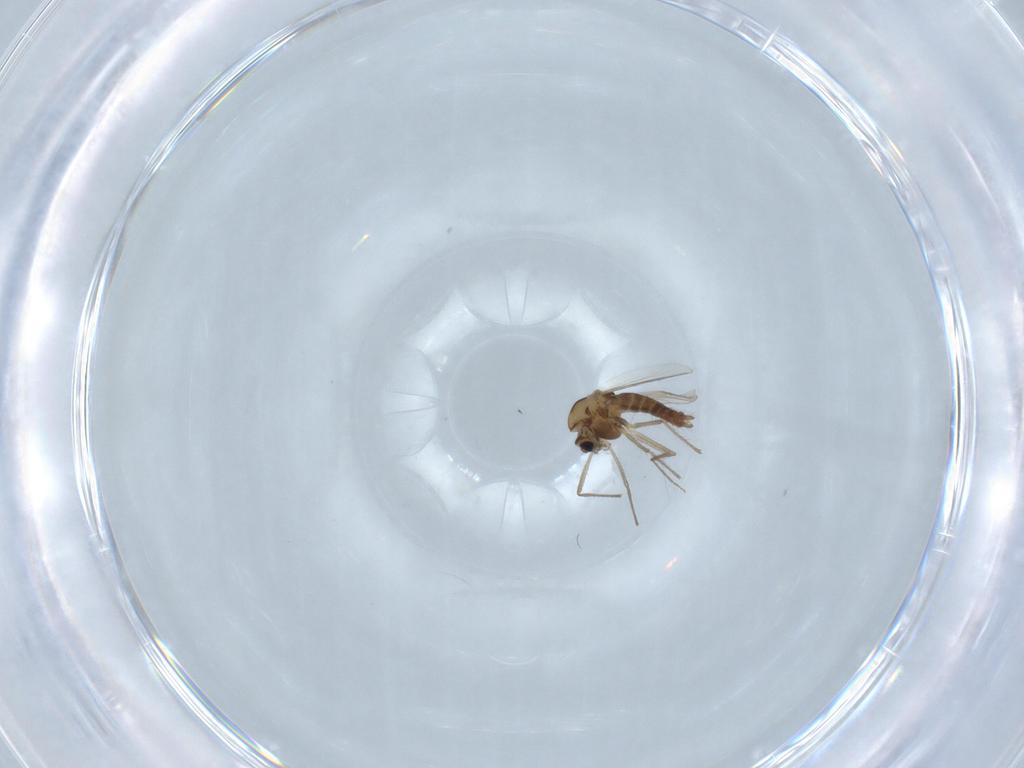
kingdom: Animalia
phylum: Arthropoda
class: Insecta
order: Diptera
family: Chironomidae
